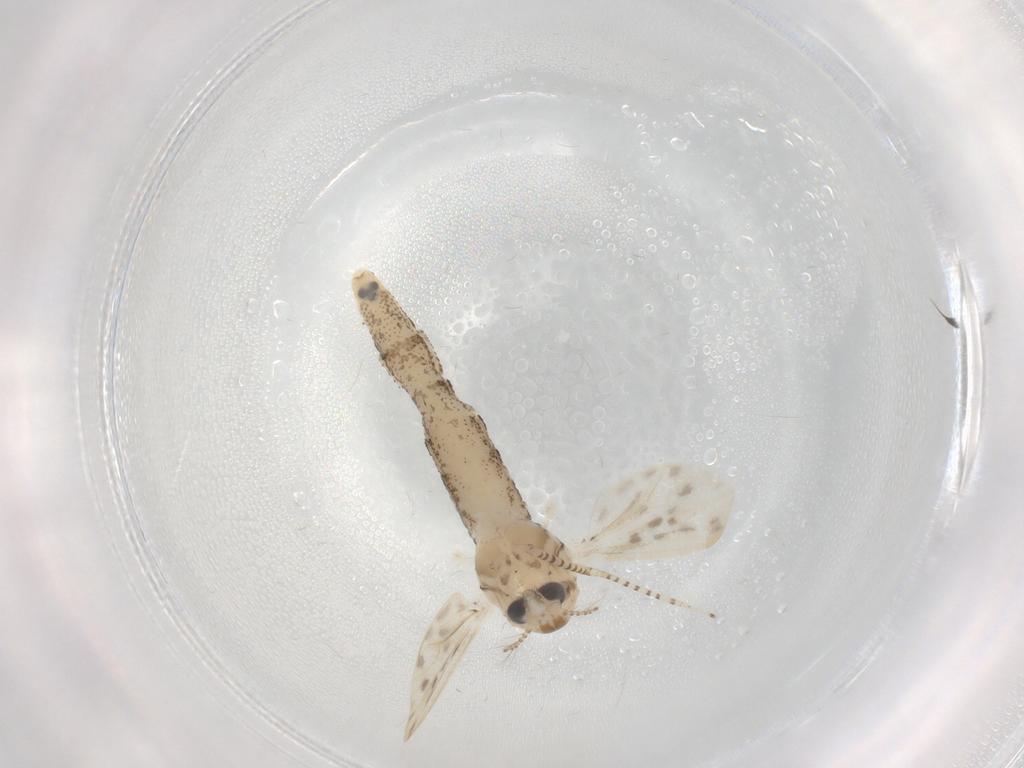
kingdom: Animalia
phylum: Arthropoda
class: Insecta
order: Diptera
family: Chaoboridae
